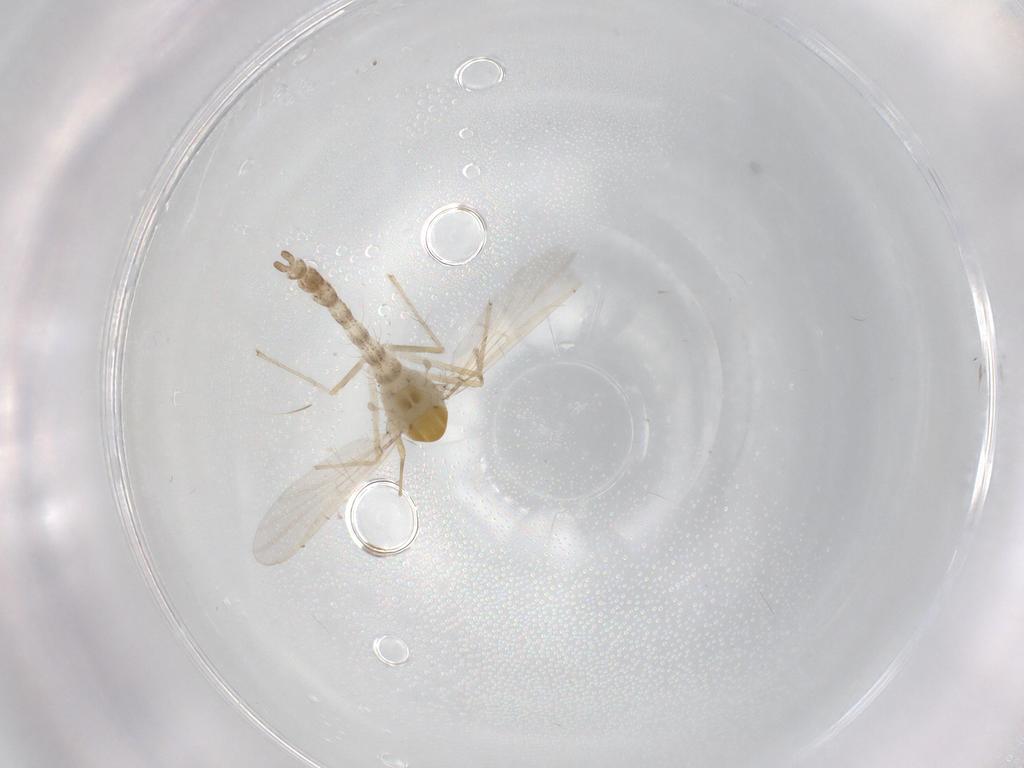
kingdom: Animalia
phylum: Arthropoda
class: Insecta
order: Diptera
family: Chironomidae
